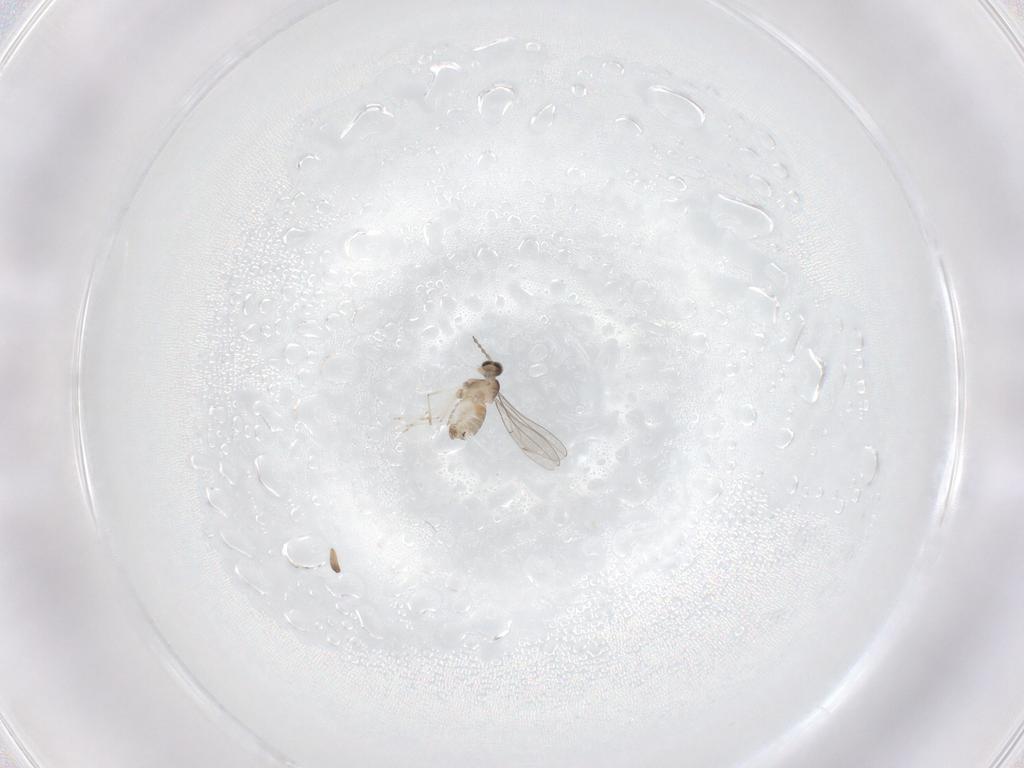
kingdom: Animalia
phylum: Arthropoda
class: Insecta
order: Diptera
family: Cecidomyiidae
